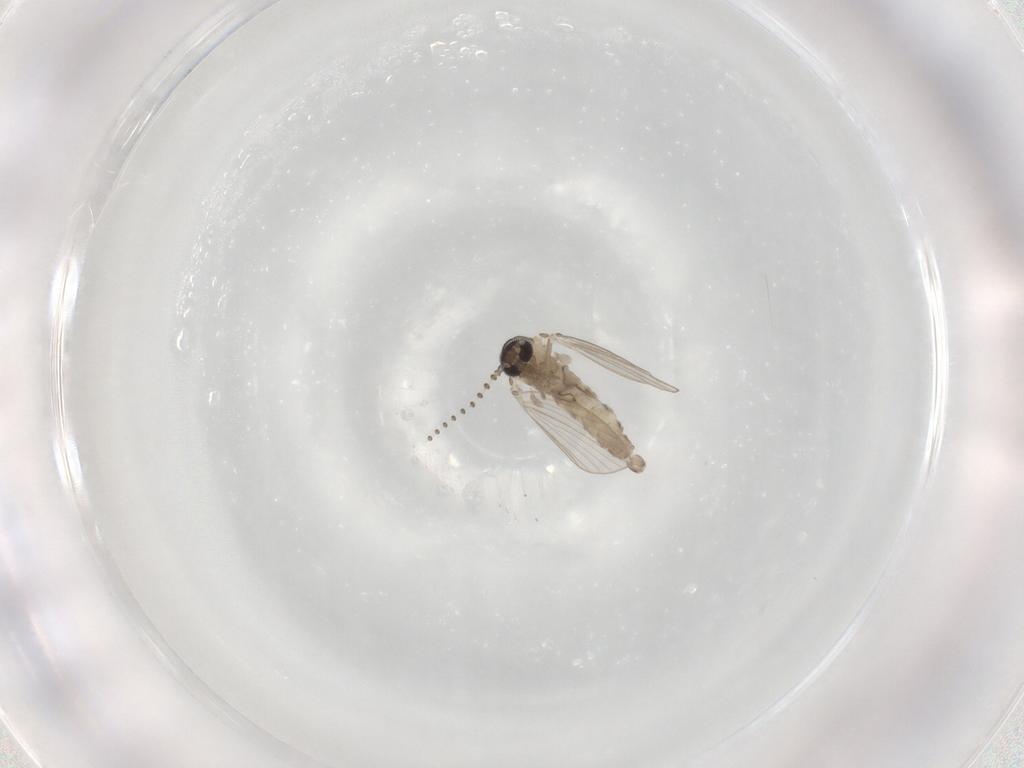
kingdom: Animalia
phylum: Arthropoda
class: Insecta
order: Diptera
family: Psychodidae
